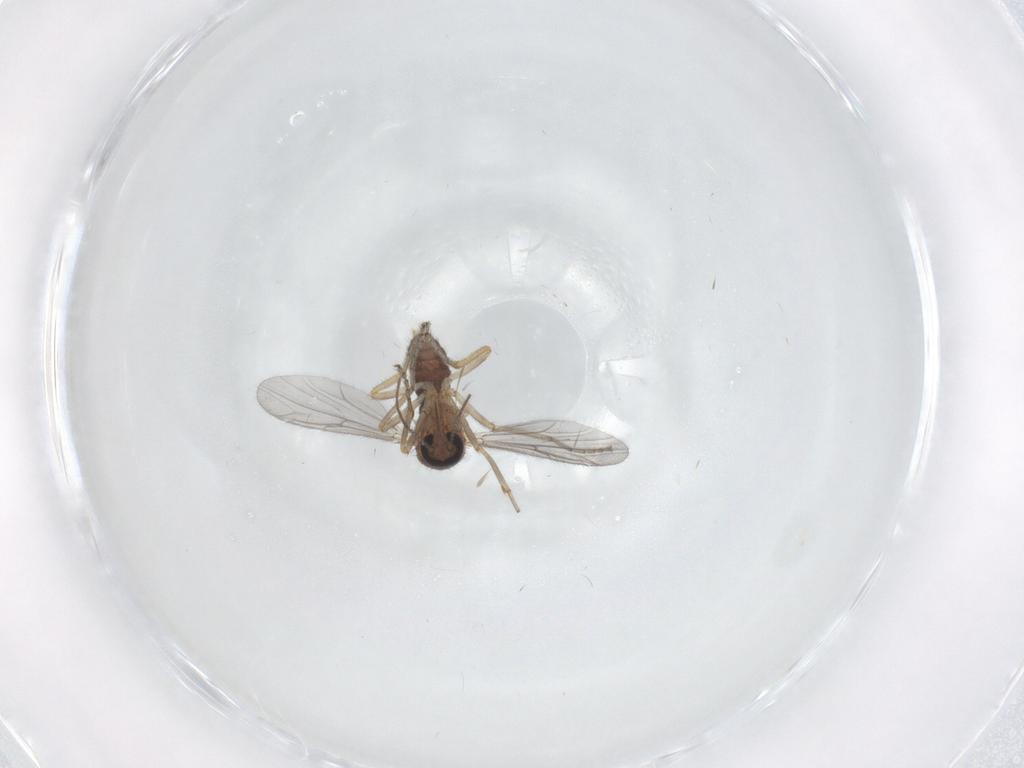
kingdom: Animalia
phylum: Arthropoda
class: Insecta
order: Diptera
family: Ceratopogonidae
